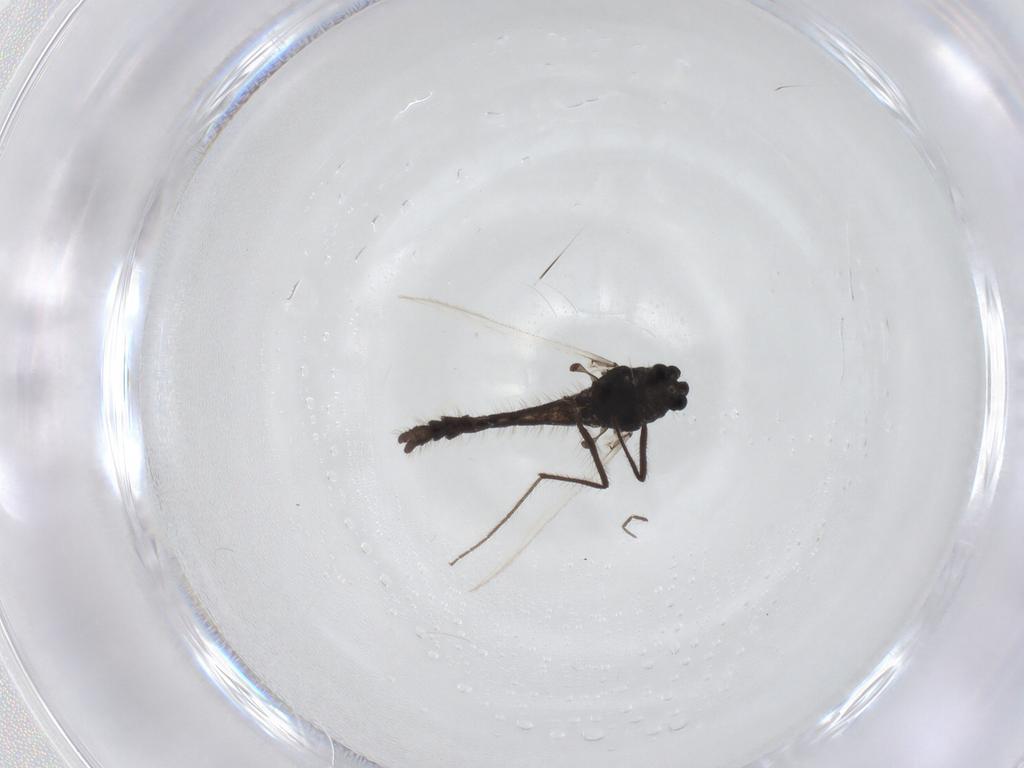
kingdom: Animalia
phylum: Arthropoda
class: Insecta
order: Diptera
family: Chironomidae
